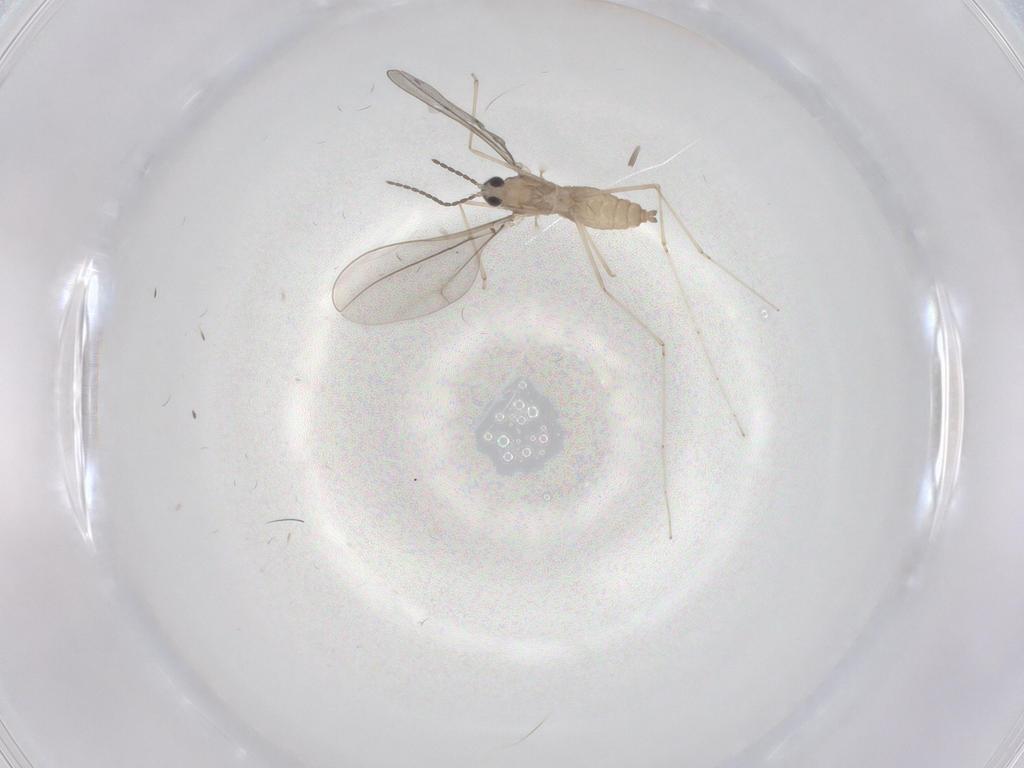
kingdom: Animalia
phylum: Arthropoda
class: Insecta
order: Diptera
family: Cecidomyiidae
